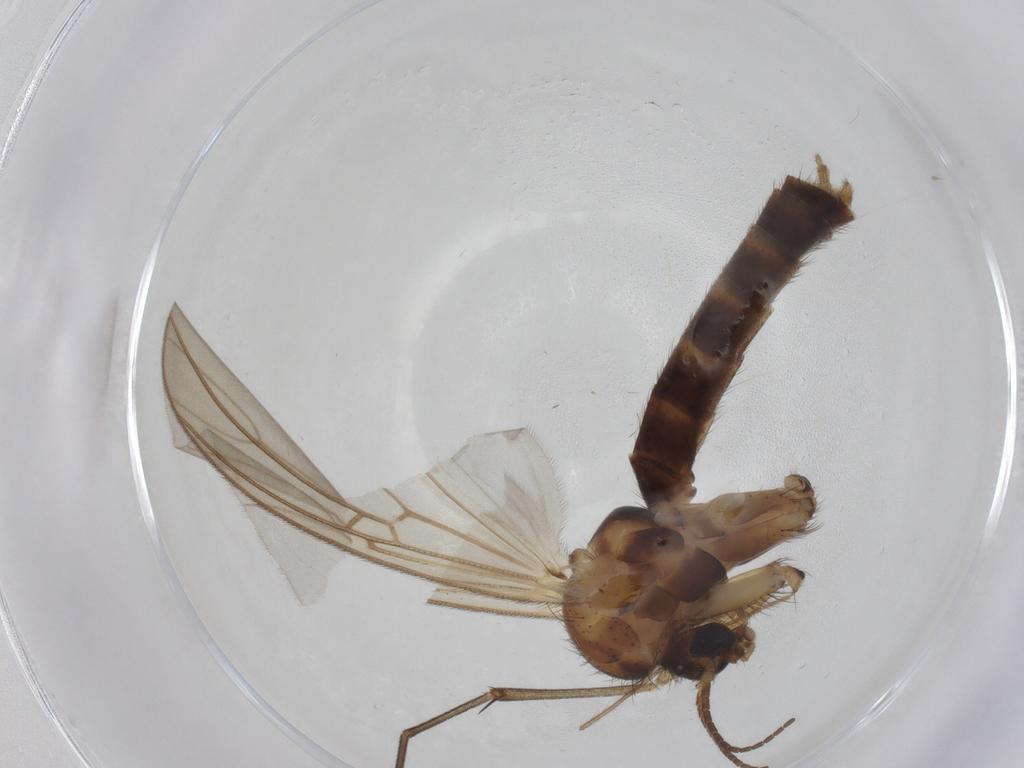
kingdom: Animalia
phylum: Arthropoda
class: Insecta
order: Diptera
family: Mycetophilidae
